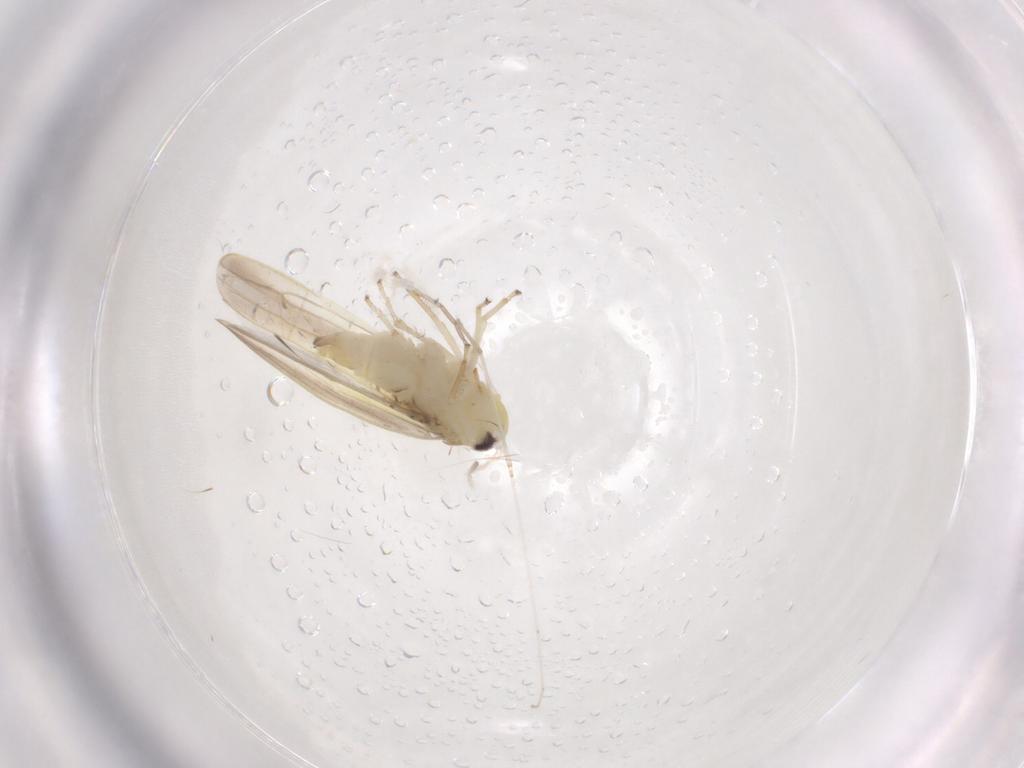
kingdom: Animalia
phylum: Arthropoda
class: Insecta
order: Hemiptera
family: Cicadellidae
